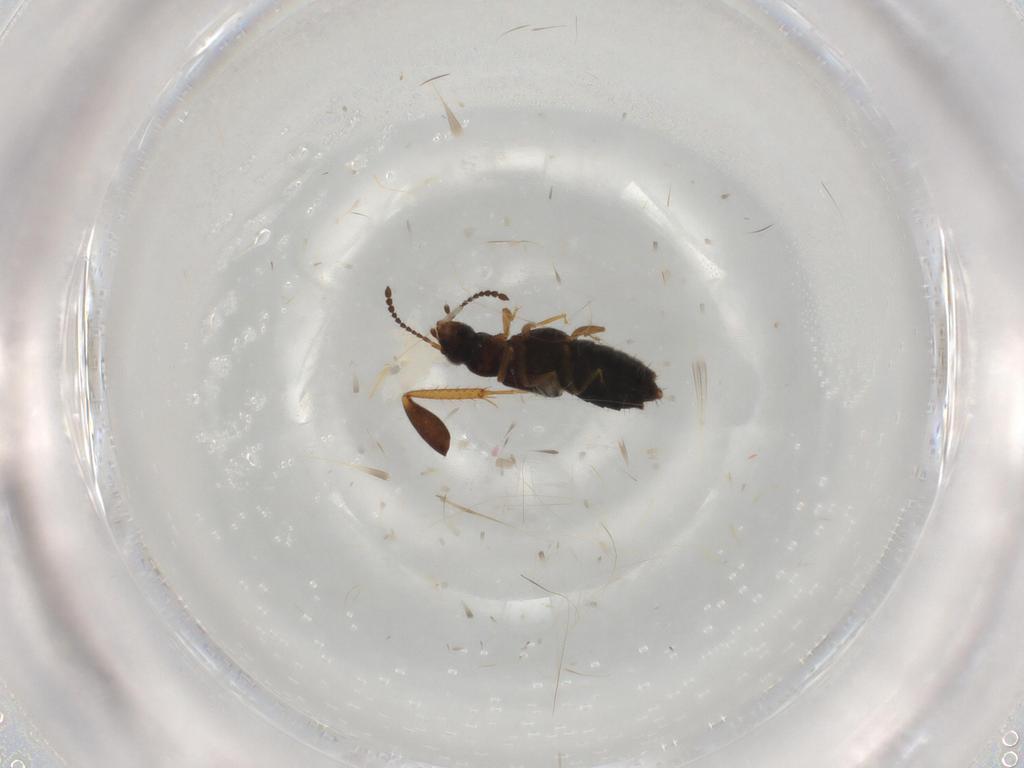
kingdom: Animalia
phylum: Arthropoda
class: Insecta
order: Coleoptera
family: Staphylinidae
